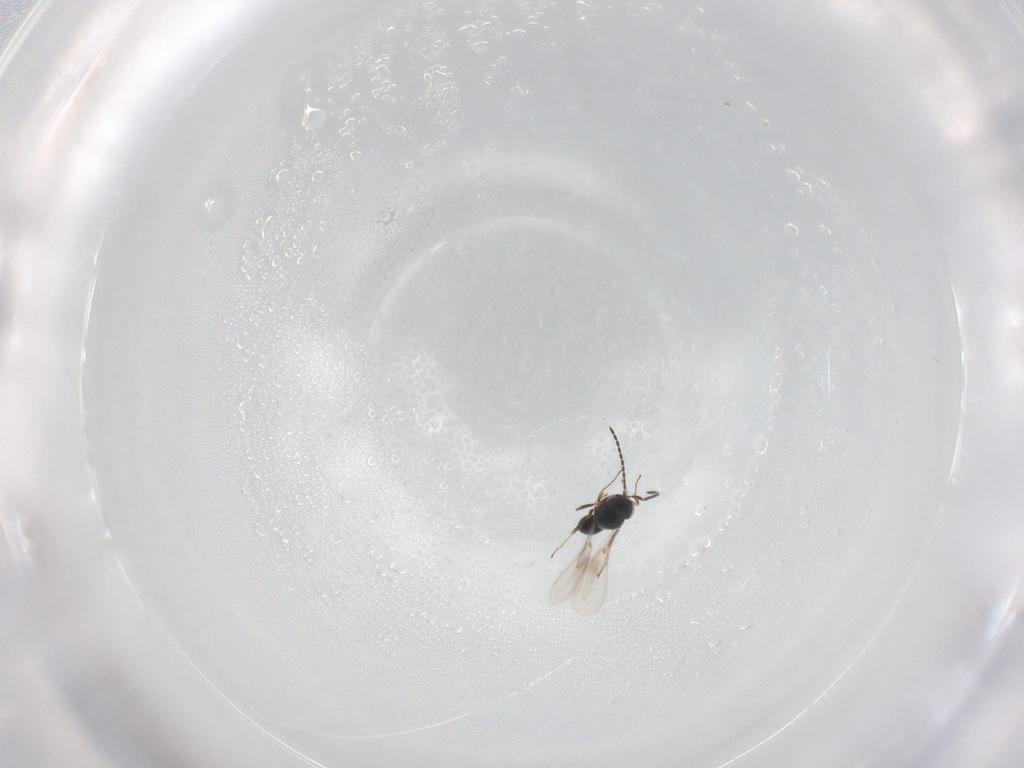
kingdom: Animalia
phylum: Arthropoda
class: Insecta
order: Hymenoptera
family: Scelionidae
